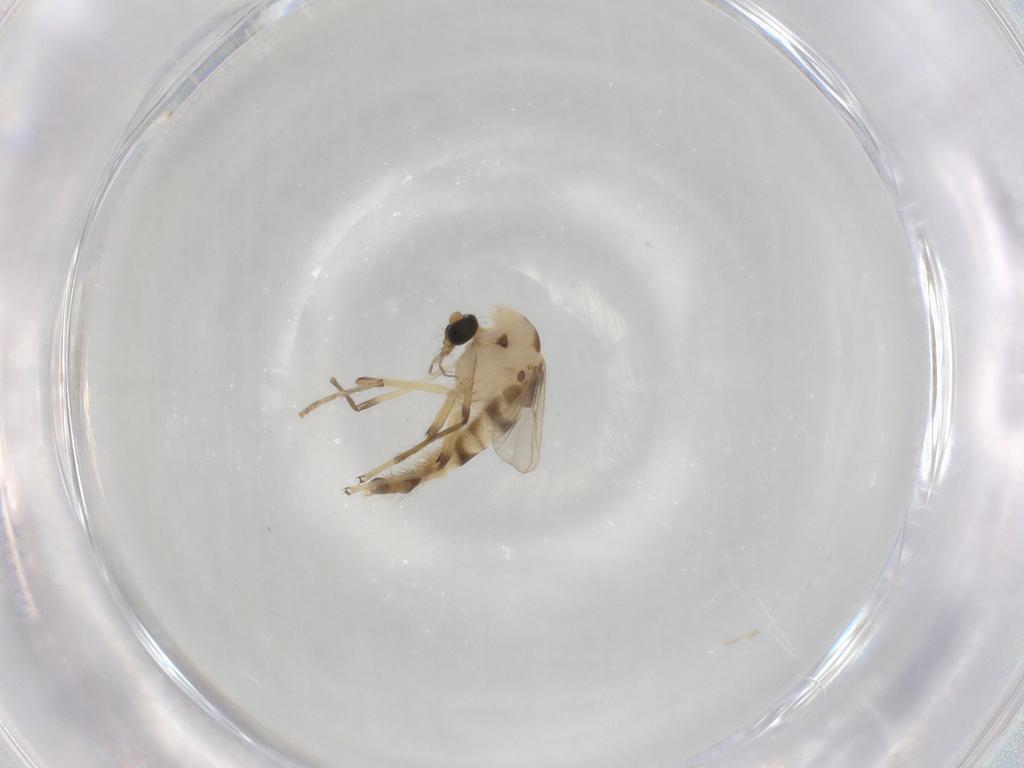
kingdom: Animalia
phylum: Arthropoda
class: Insecta
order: Diptera
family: Chironomidae
